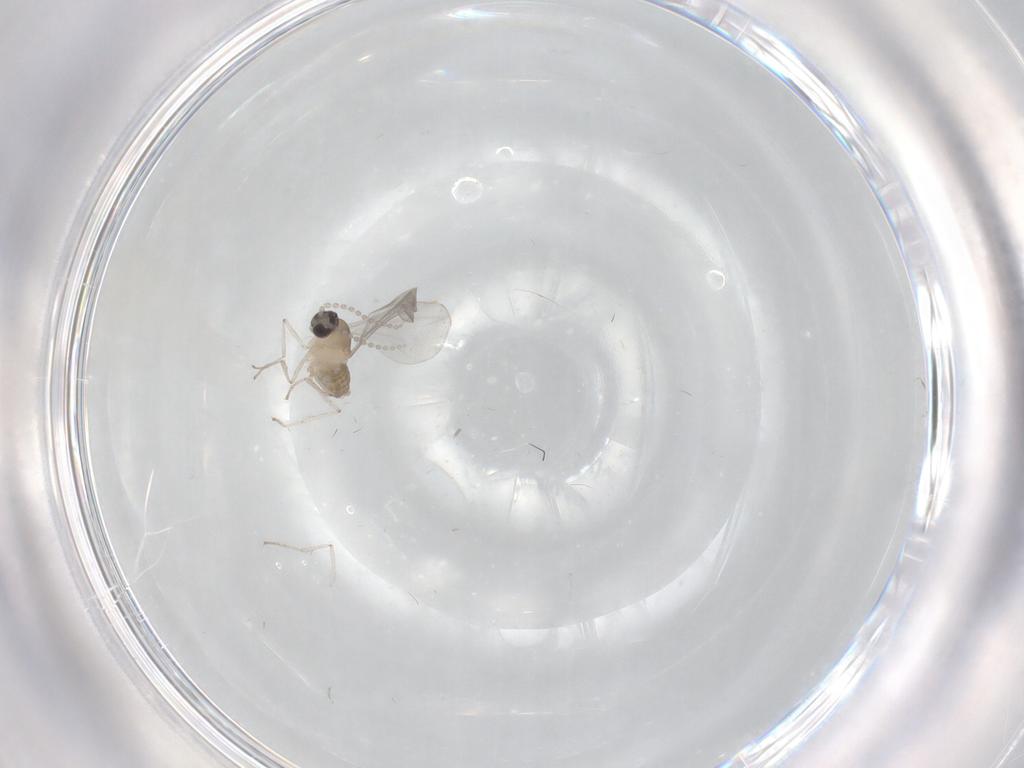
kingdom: Animalia
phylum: Arthropoda
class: Insecta
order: Diptera
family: Cecidomyiidae
